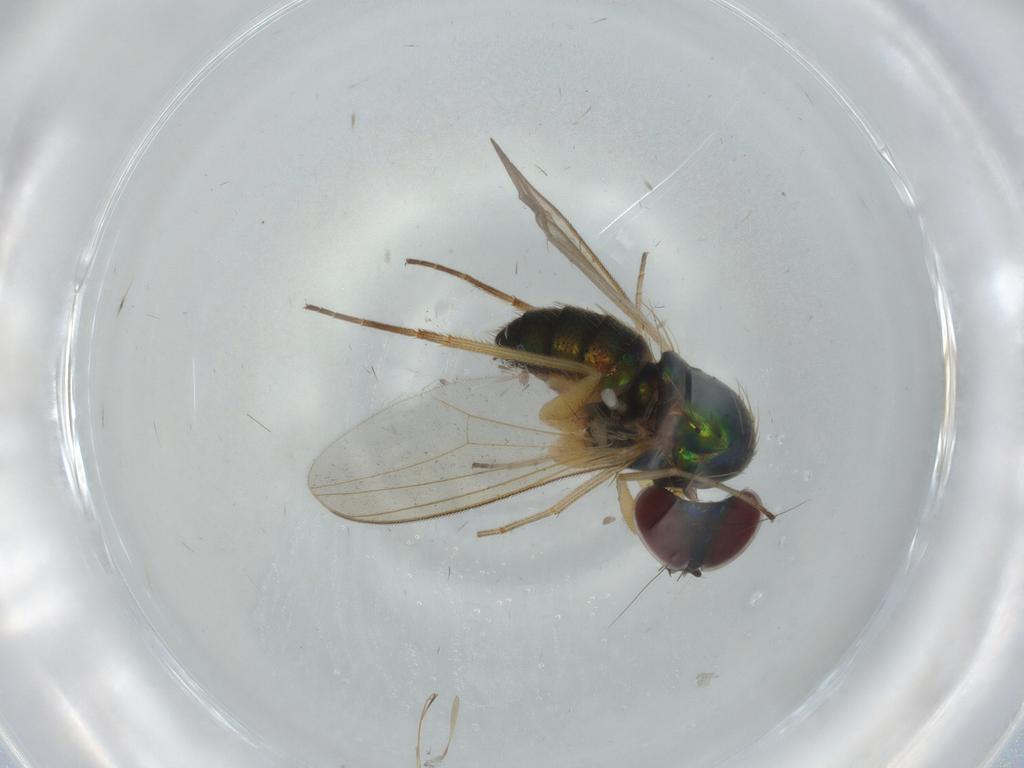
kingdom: Animalia
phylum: Arthropoda
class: Insecta
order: Diptera
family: Dolichopodidae
